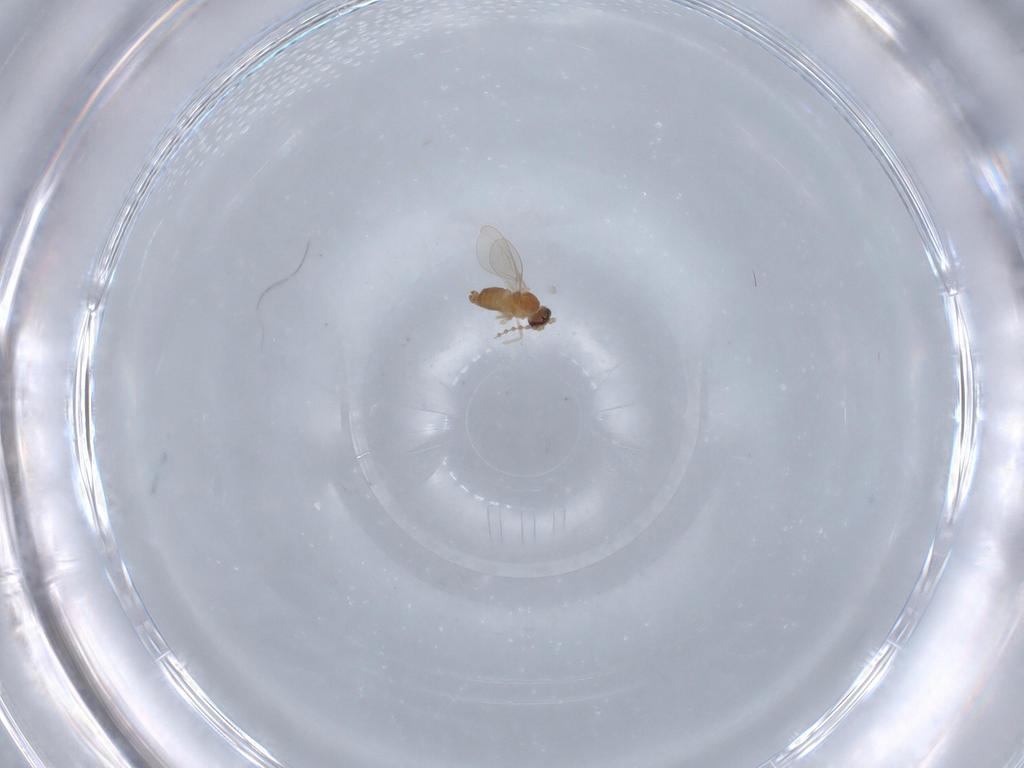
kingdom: Animalia
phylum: Arthropoda
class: Insecta
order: Diptera
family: Cecidomyiidae
